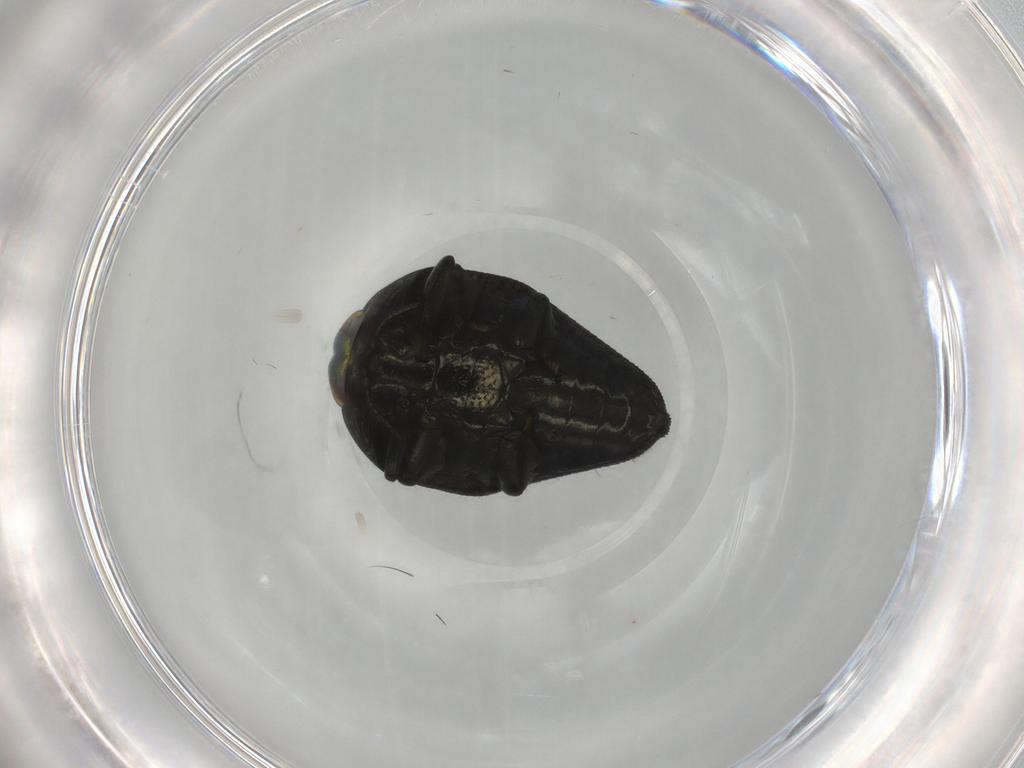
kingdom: Animalia
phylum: Arthropoda
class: Insecta
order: Coleoptera
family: Buprestidae
